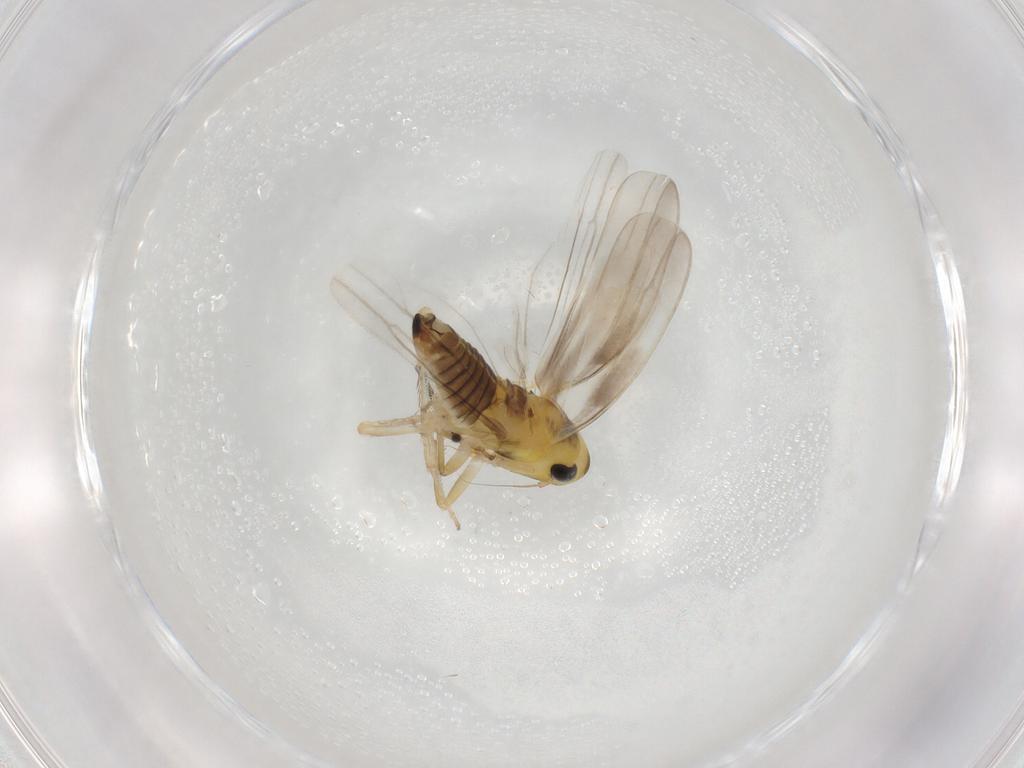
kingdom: Animalia
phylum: Arthropoda
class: Insecta
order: Hemiptera
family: Cicadellidae
